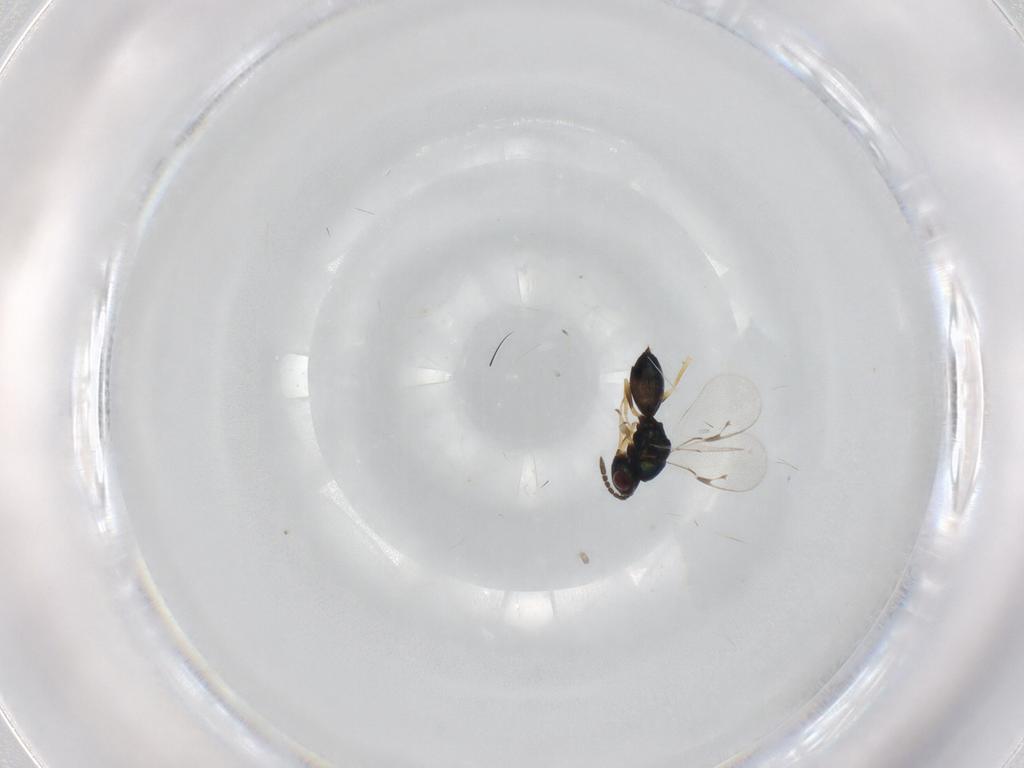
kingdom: Animalia
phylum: Arthropoda
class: Insecta
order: Hymenoptera
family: Pteromalidae
